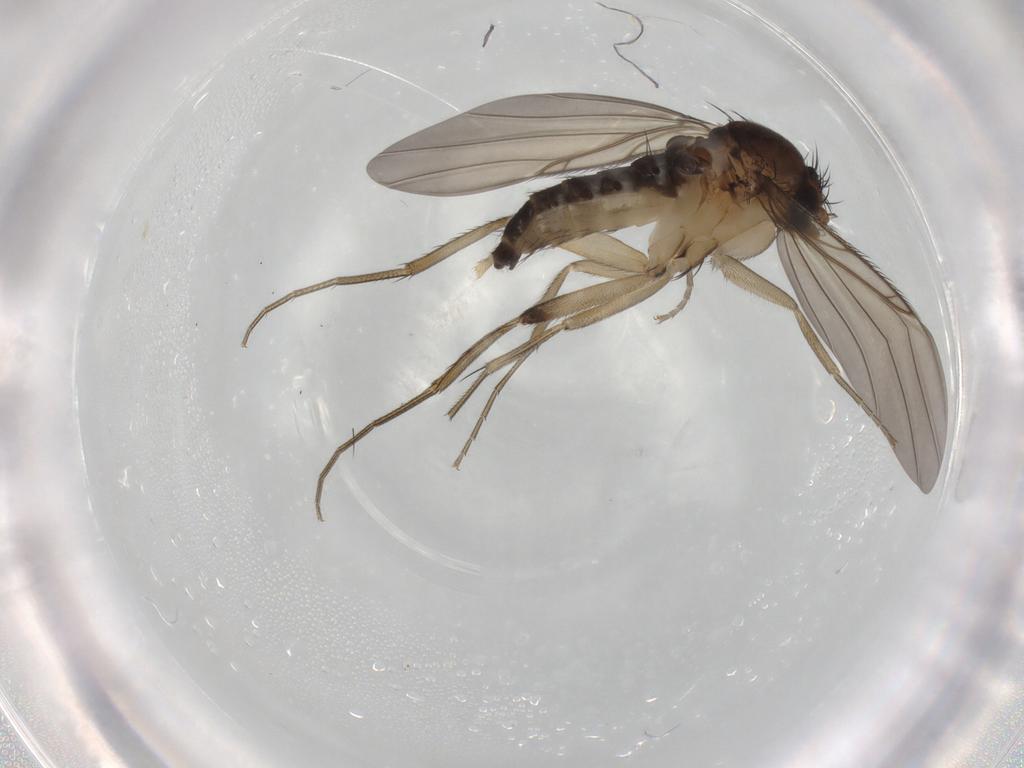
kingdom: Animalia
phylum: Arthropoda
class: Insecta
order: Diptera
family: Phoridae
